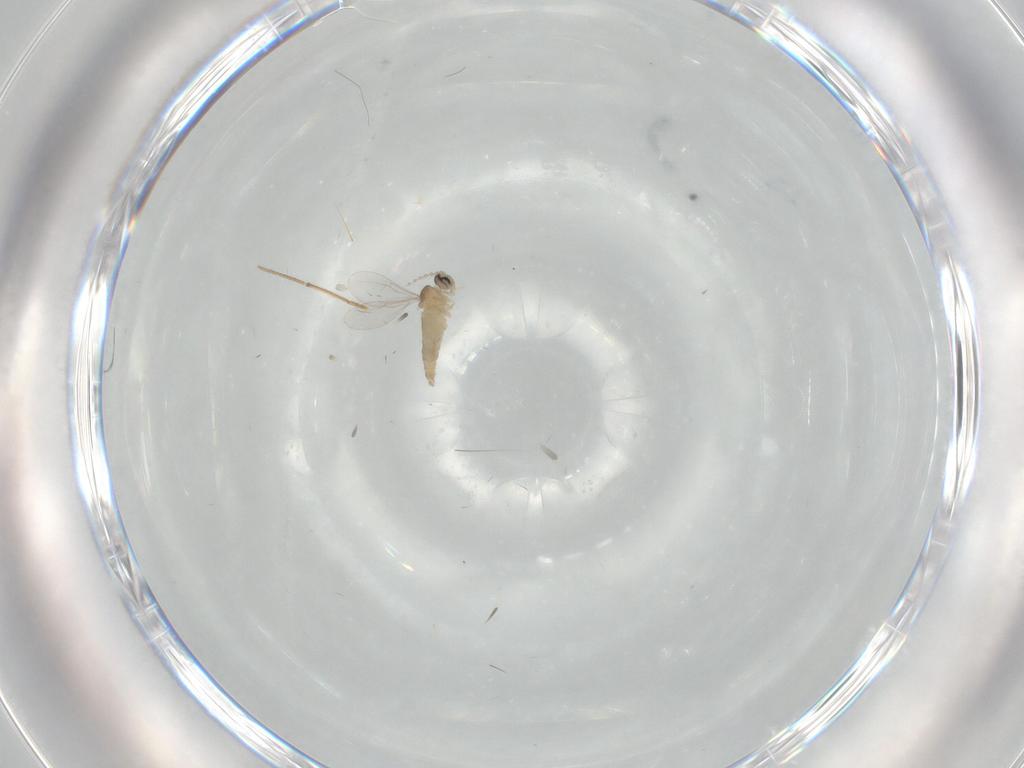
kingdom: Animalia
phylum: Arthropoda
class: Insecta
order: Diptera
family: Cecidomyiidae
